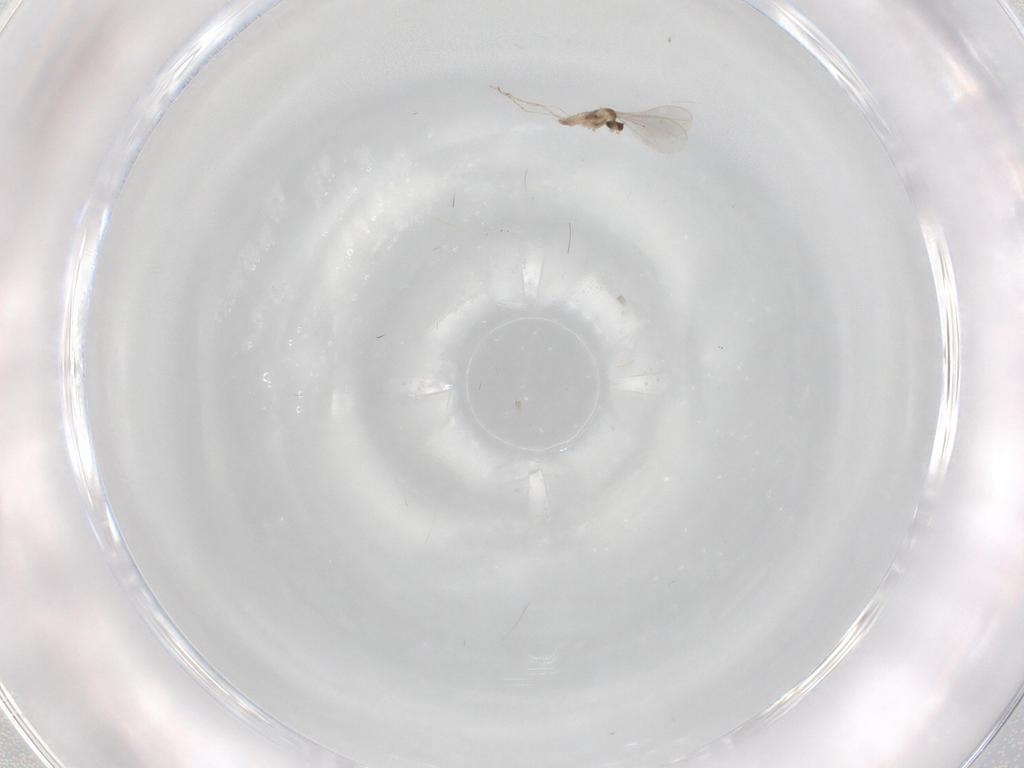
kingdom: Animalia
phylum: Arthropoda
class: Insecta
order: Diptera
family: Cecidomyiidae
